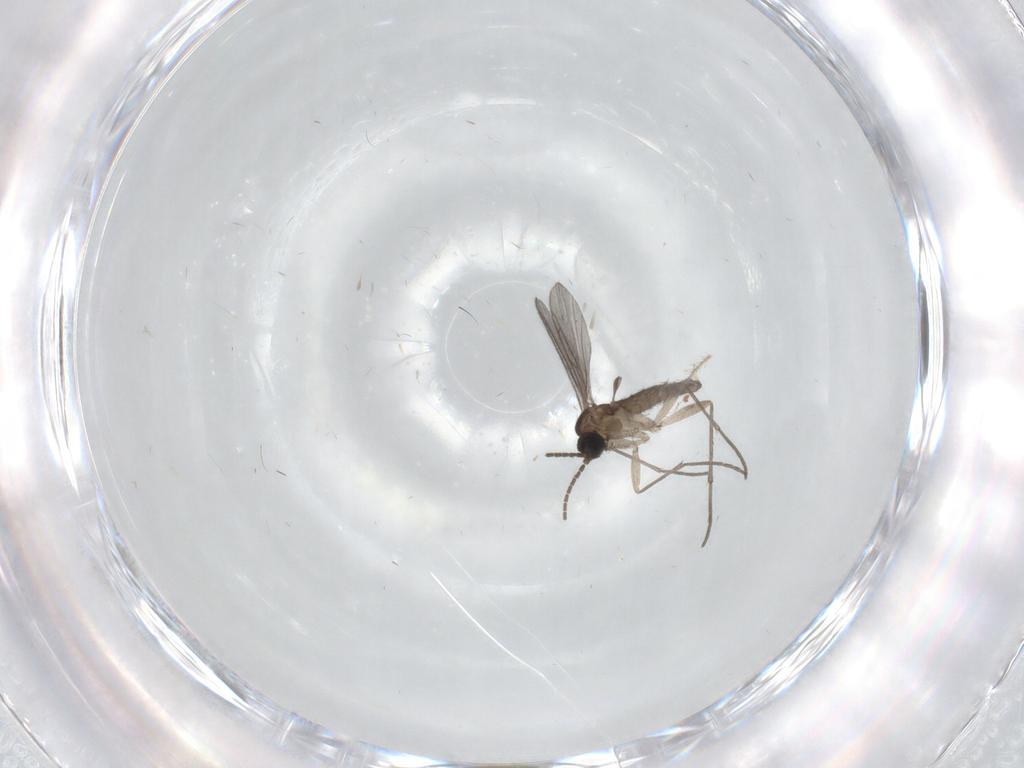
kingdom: Animalia
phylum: Arthropoda
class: Insecta
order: Diptera
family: Sciaridae
